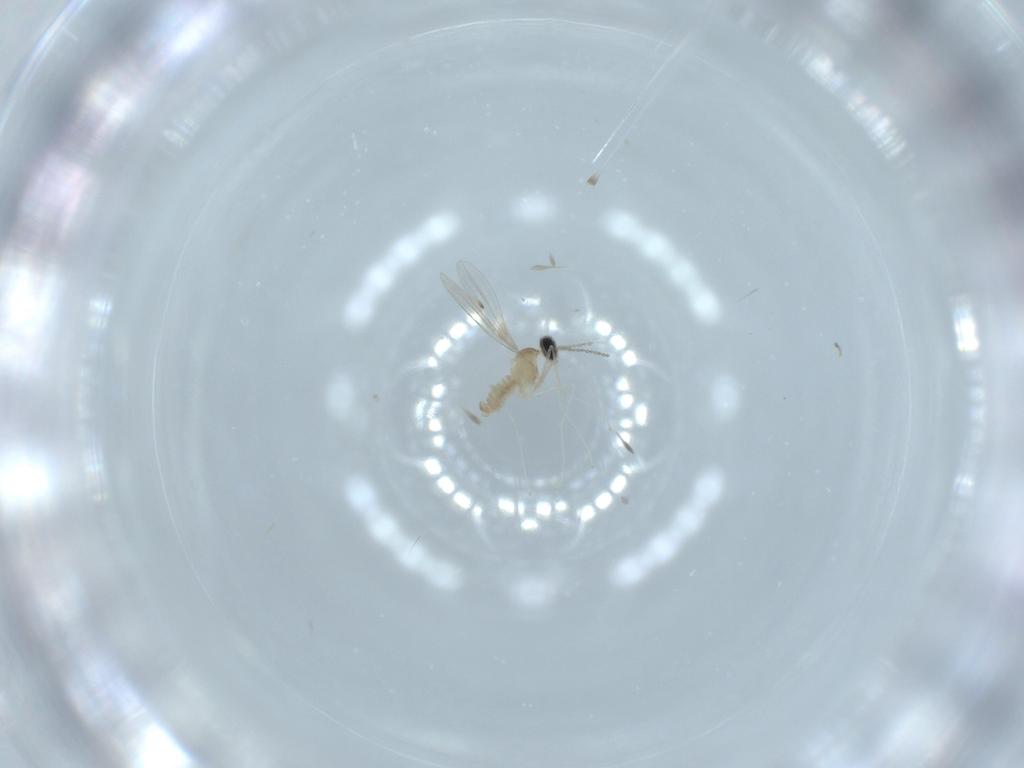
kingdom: Animalia
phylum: Arthropoda
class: Insecta
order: Diptera
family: Cecidomyiidae
